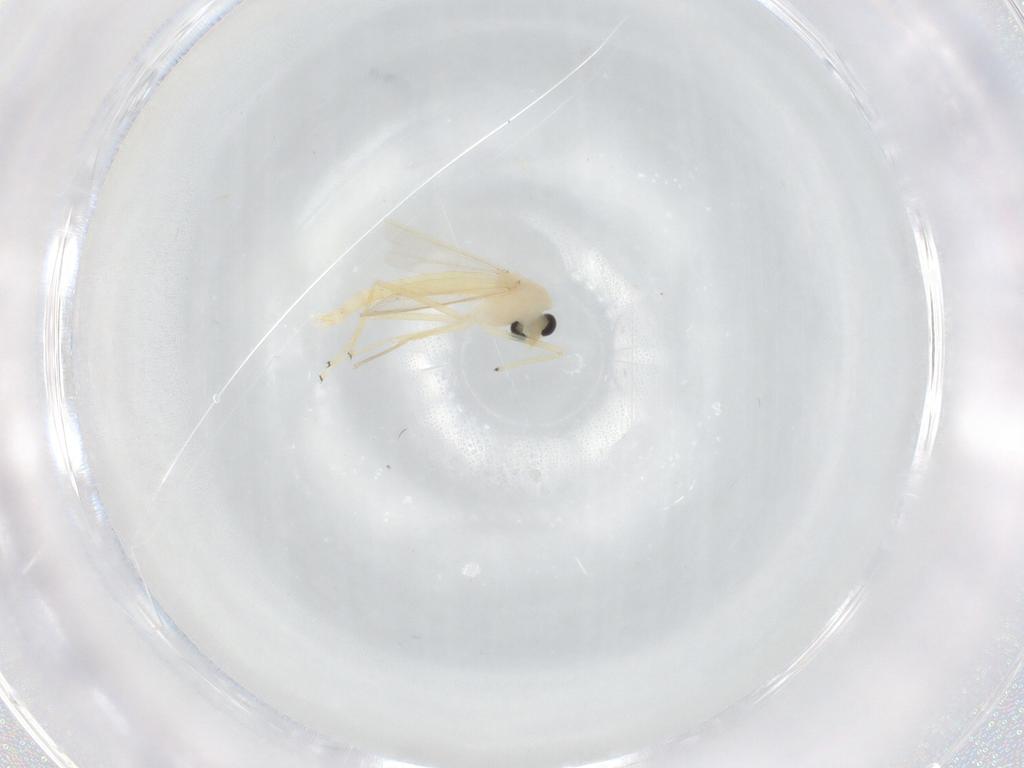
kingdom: Animalia
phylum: Arthropoda
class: Insecta
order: Diptera
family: Chironomidae
